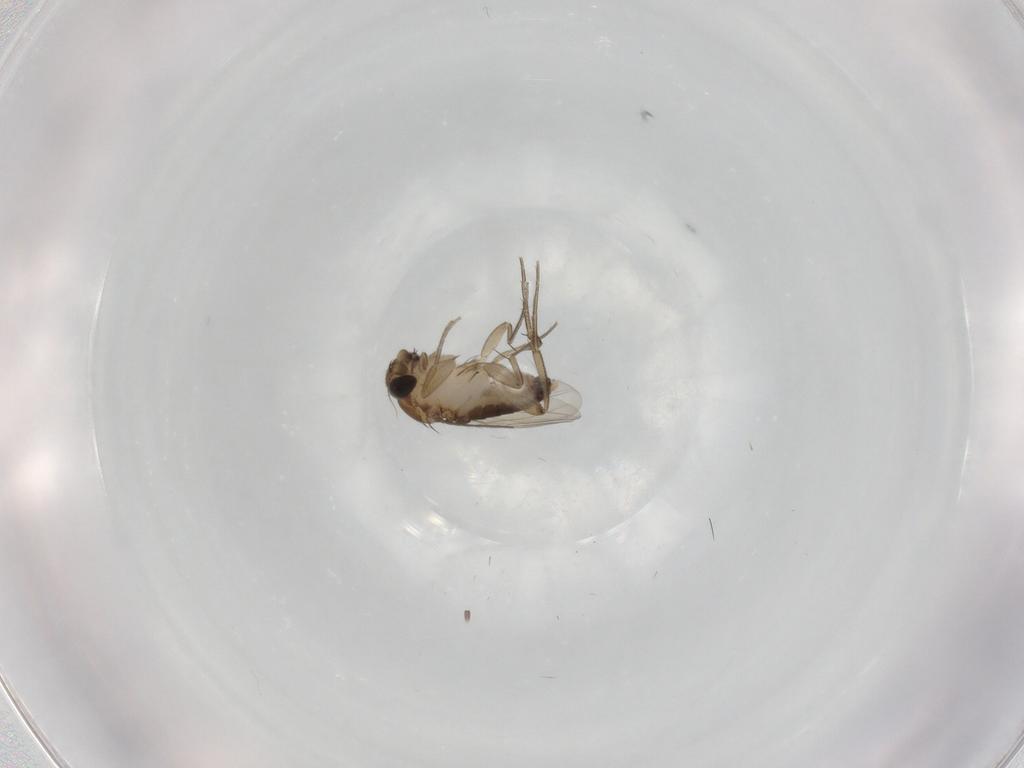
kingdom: Animalia
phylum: Arthropoda
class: Insecta
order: Diptera
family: Phoridae
